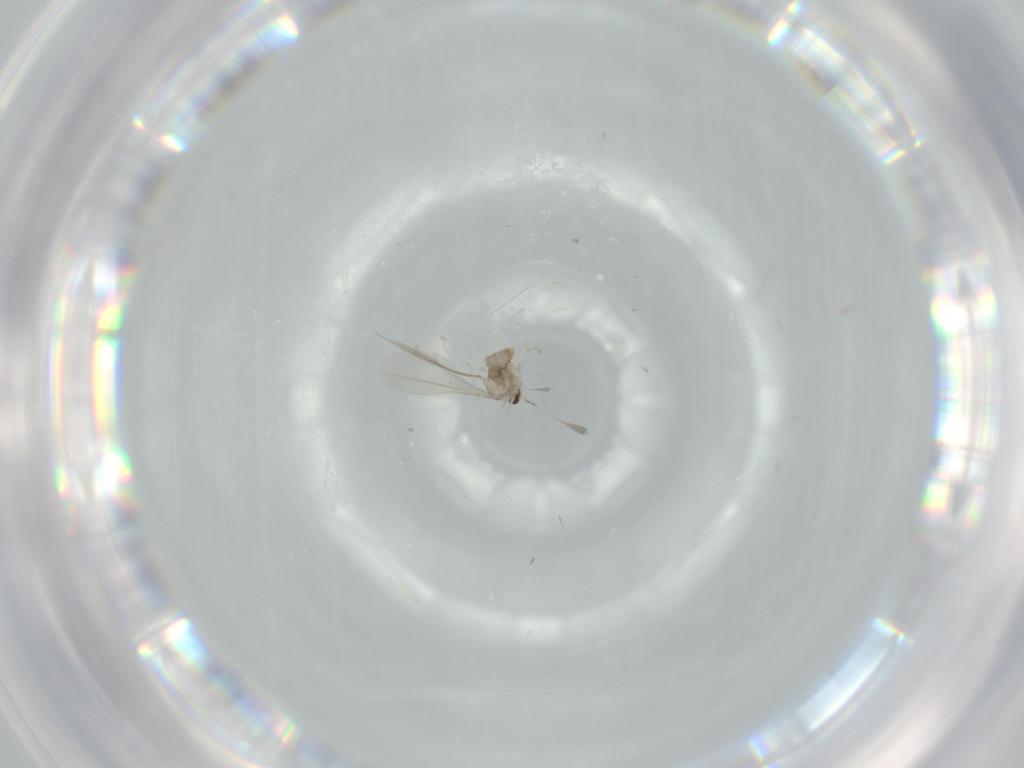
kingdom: Animalia
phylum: Arthropoda
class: Insecta
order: Diptera
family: Cecidomyiidae
